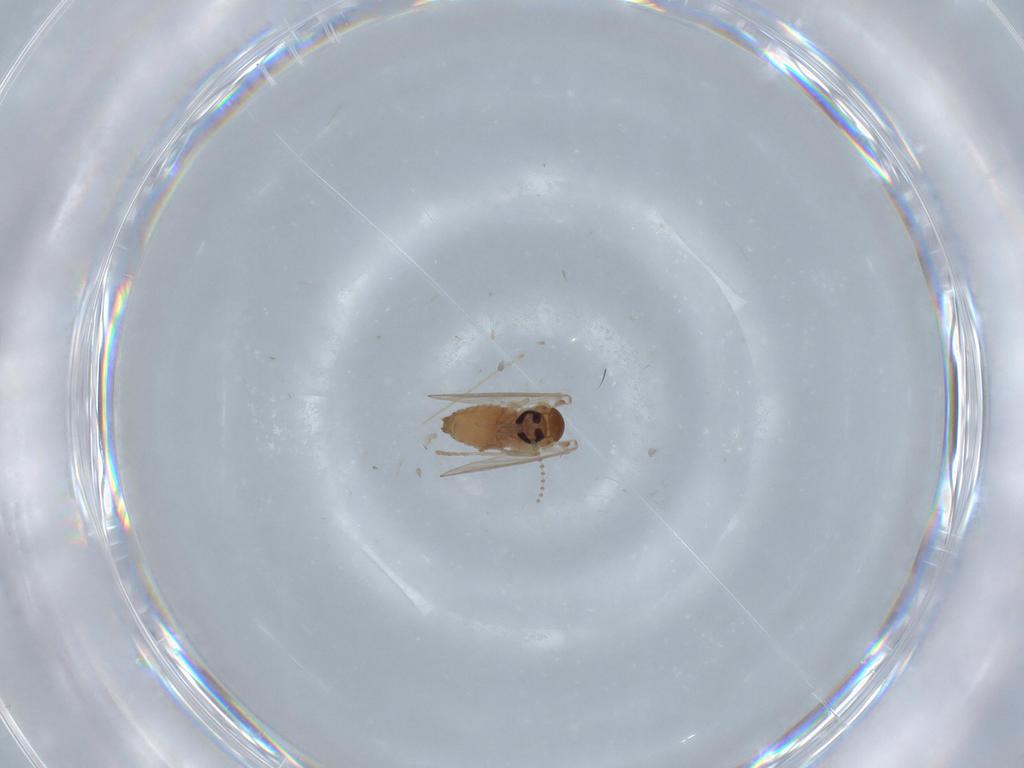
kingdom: Animalia
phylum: Arthropoda
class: Insecta
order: Diptera
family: Psychodidae
